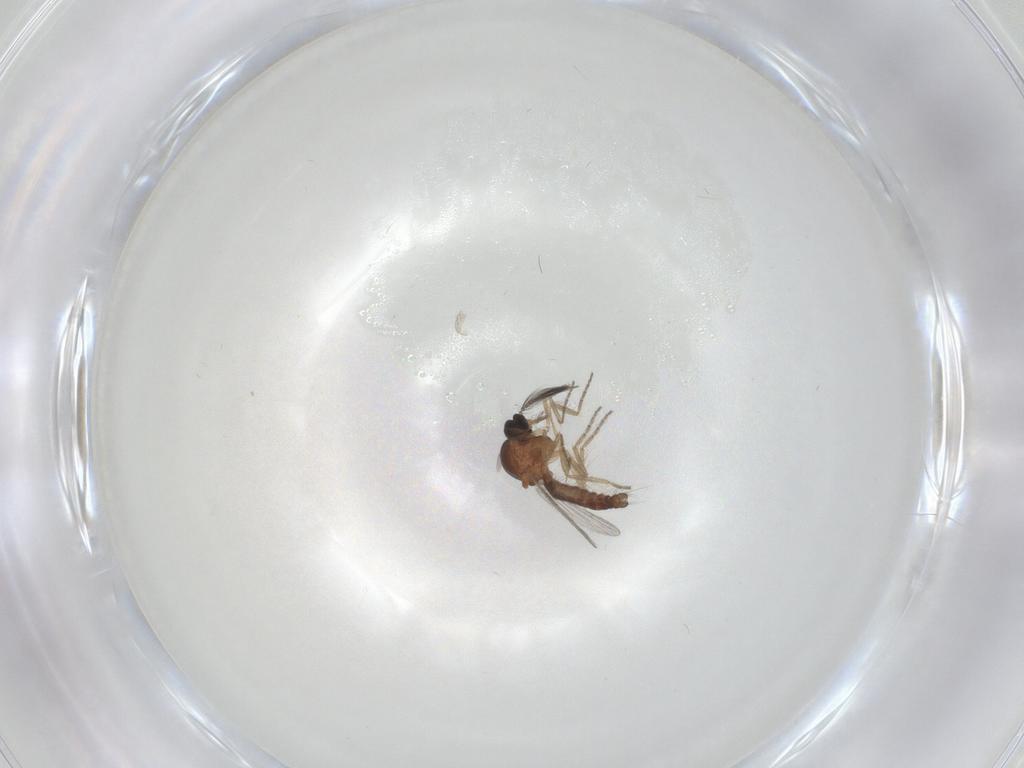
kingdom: Animalia
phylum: Arthropoda
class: Insecta
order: Diptera
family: Ceratopogonidae
